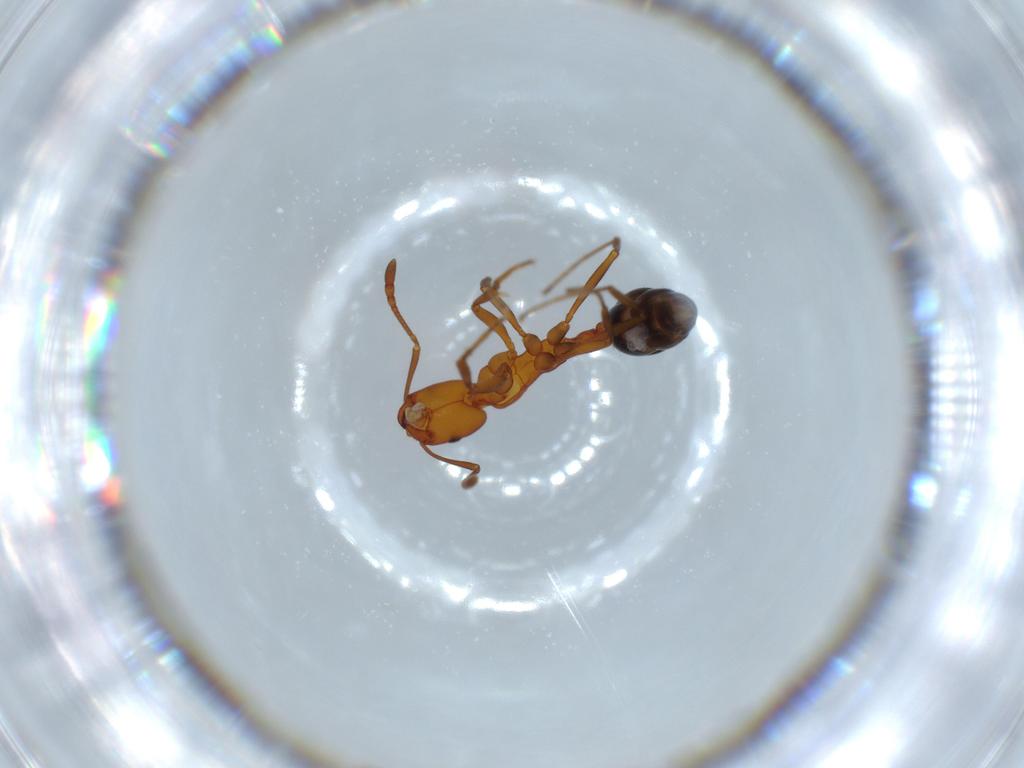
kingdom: Animalia
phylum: Arthropoda
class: Insecta
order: Hymenoptera
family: Formicidae
